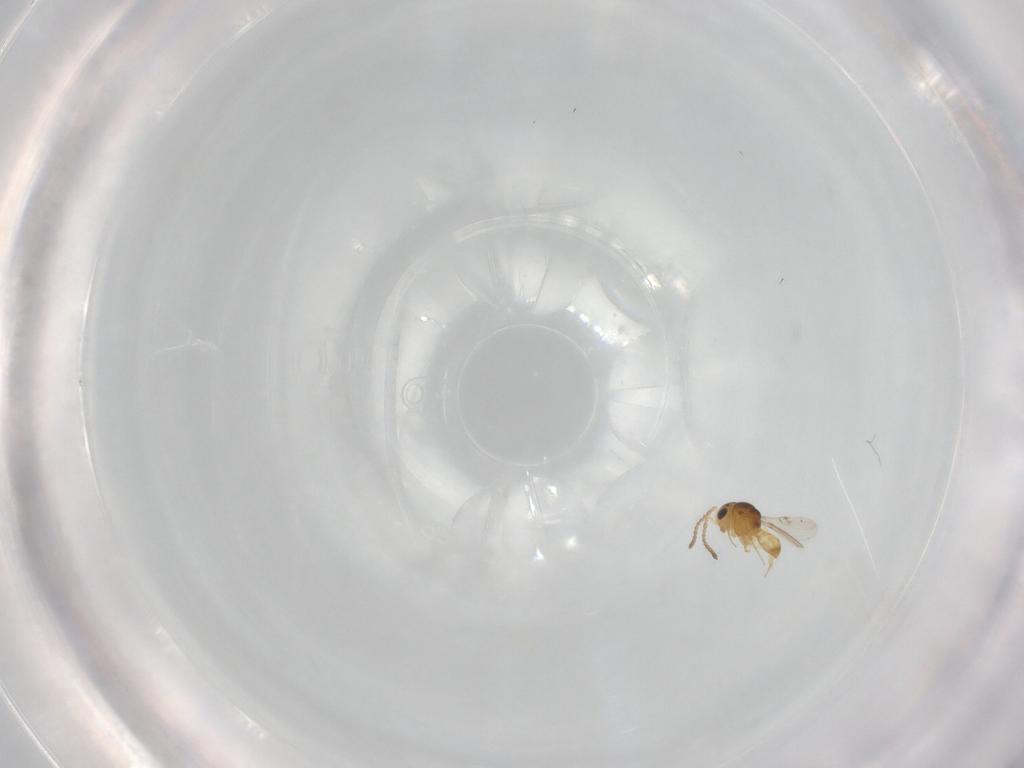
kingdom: Animalia
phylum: Arthropoda
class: Insecta
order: Hymenoptera
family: Scelionidae
